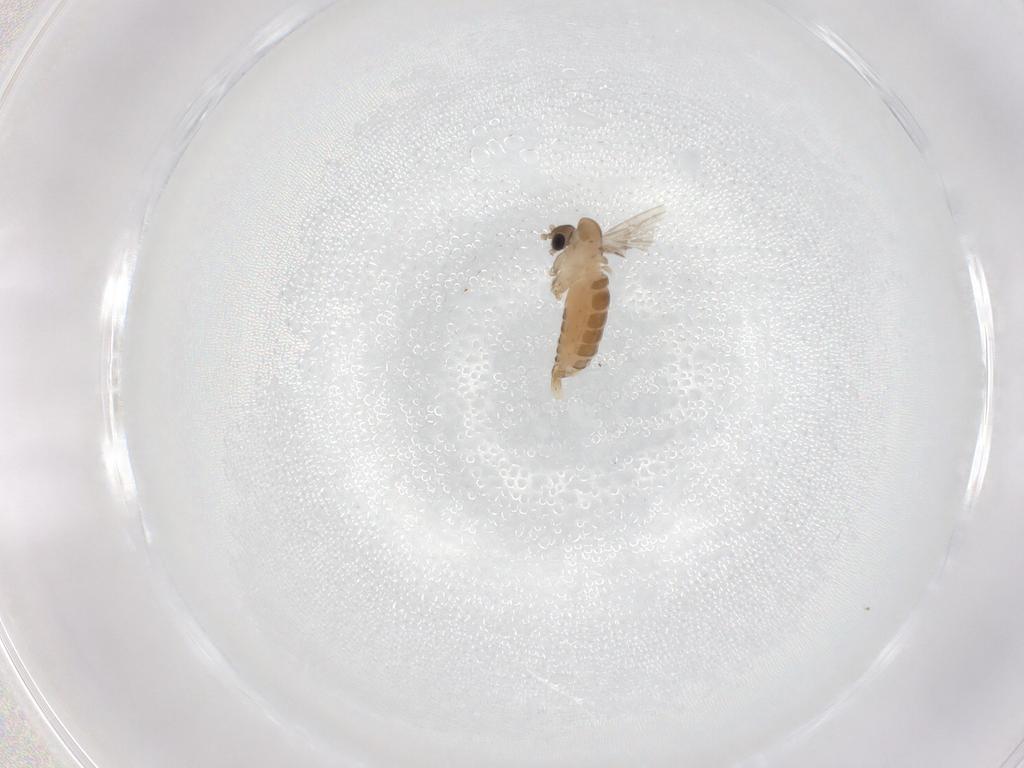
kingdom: Animalia
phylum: Arthropoda
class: Insecta
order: Diptera
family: Psychodidae
